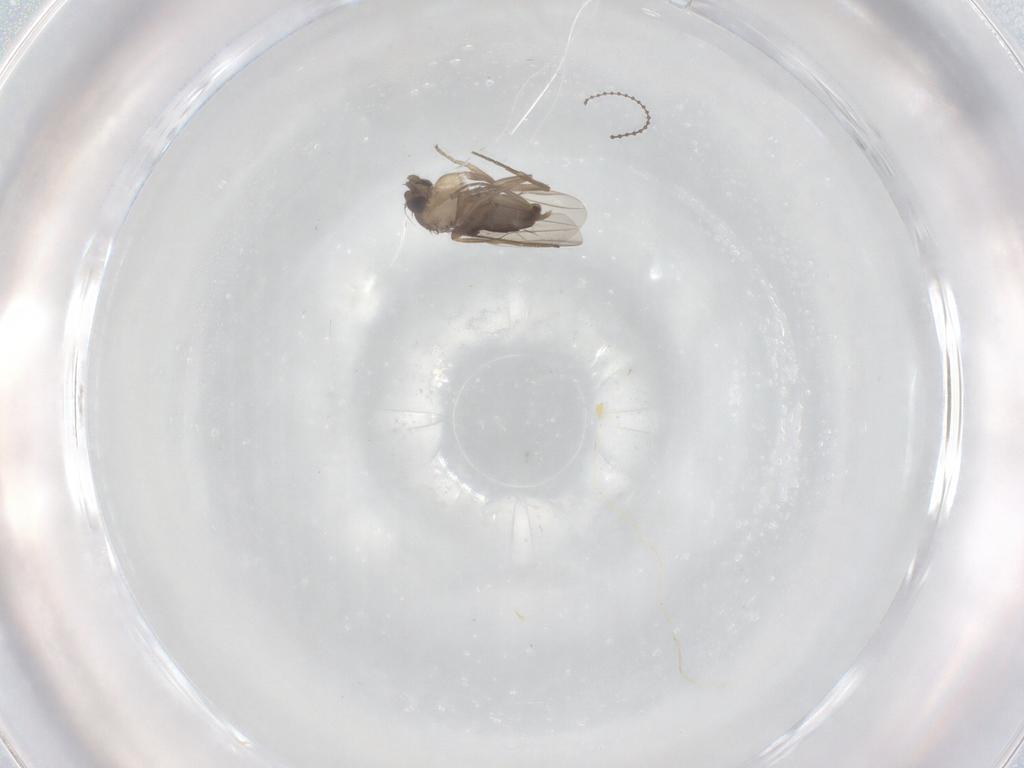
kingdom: Animalia
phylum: Arthropoda
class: Insecta
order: Diptera
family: Phoridae
